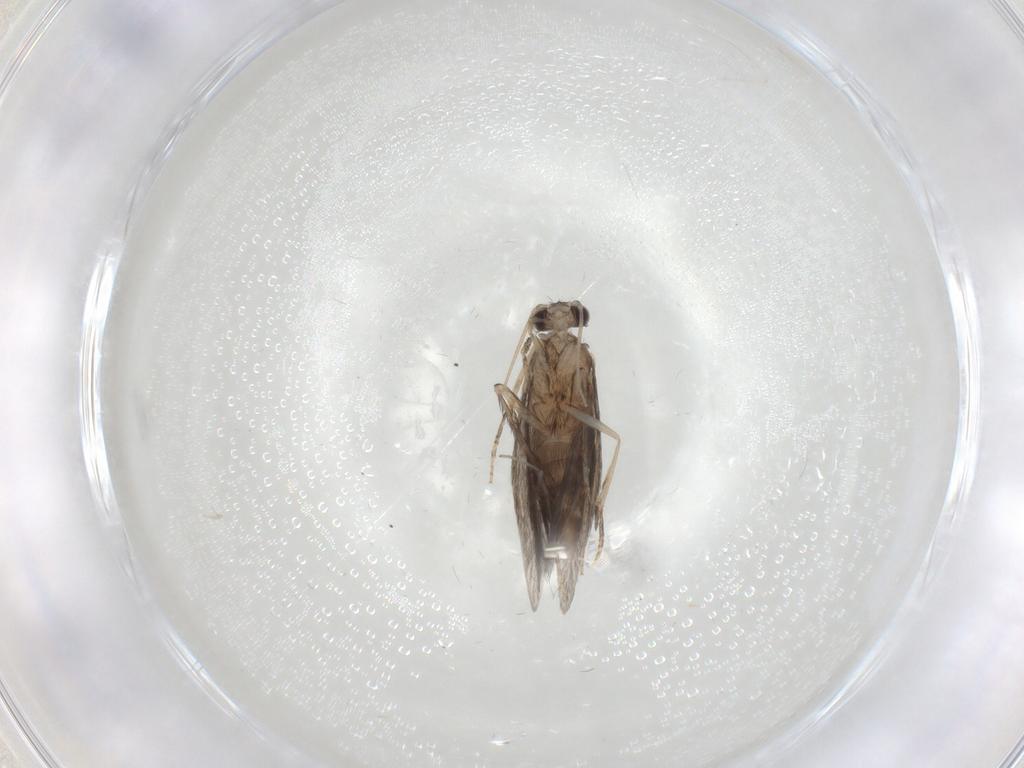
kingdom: Animalia
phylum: Arthropoda
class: Insecta
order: Trichoptera
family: Hydroptilidae
